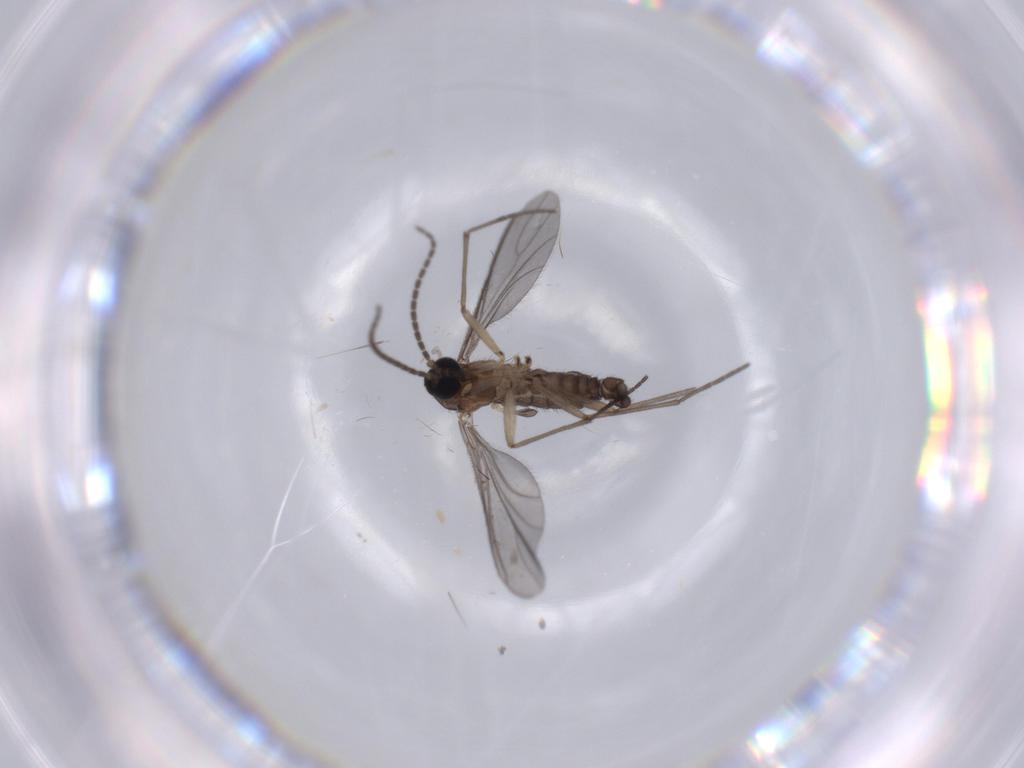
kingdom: Animalia
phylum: Arthropoda
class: Insecta
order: Diptera
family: Sciaridae
